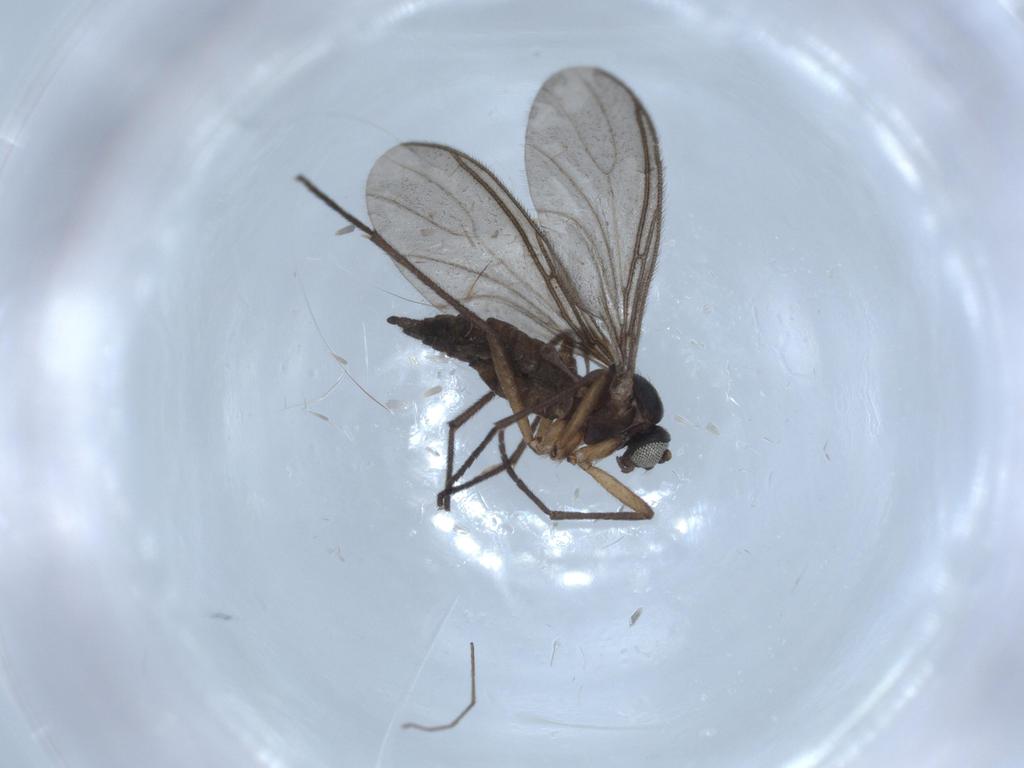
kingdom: Animalia
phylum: Arthropoda
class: Insecta
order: Diptera
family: Sciaridae
